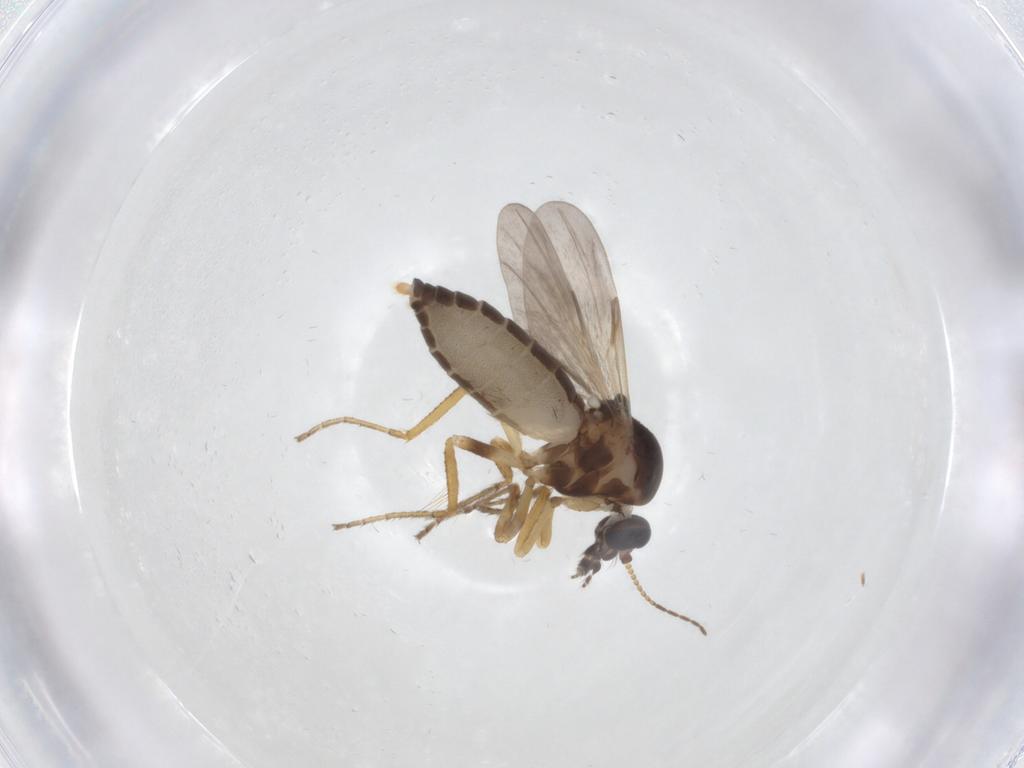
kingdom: Animalia
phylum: Arthropoda
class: Insecta
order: Diptera
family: Ceratopogonidae
